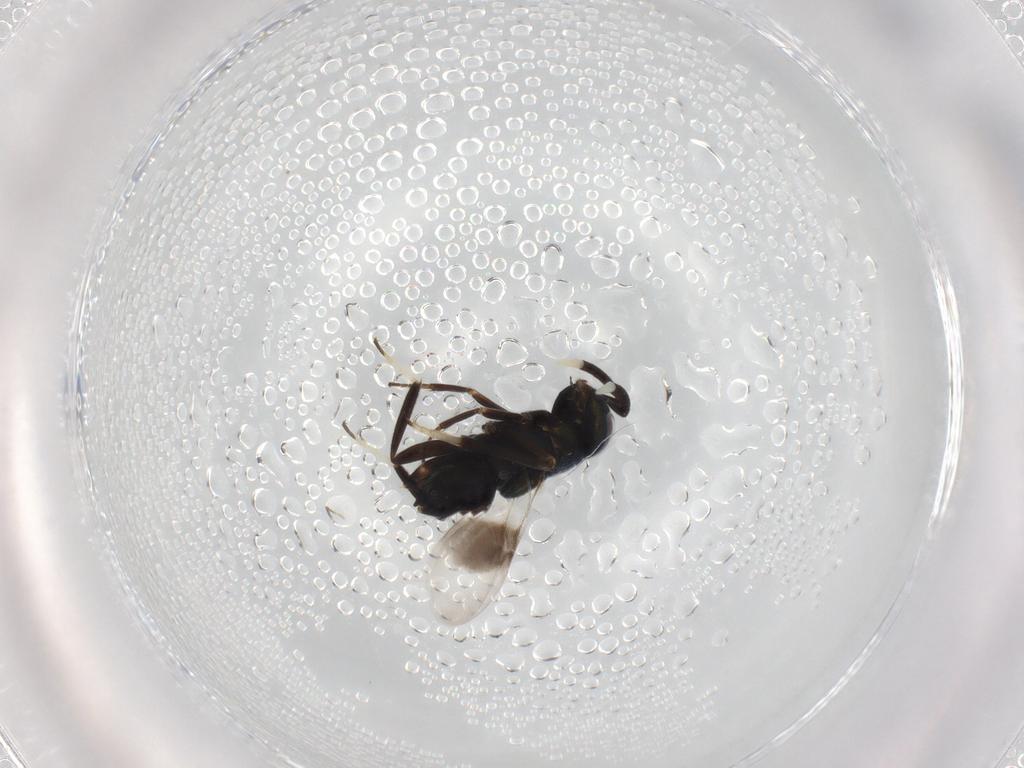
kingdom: Animalia
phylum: Arthropoda
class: Insecta
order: Hymenoptera
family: Encyrtidae
